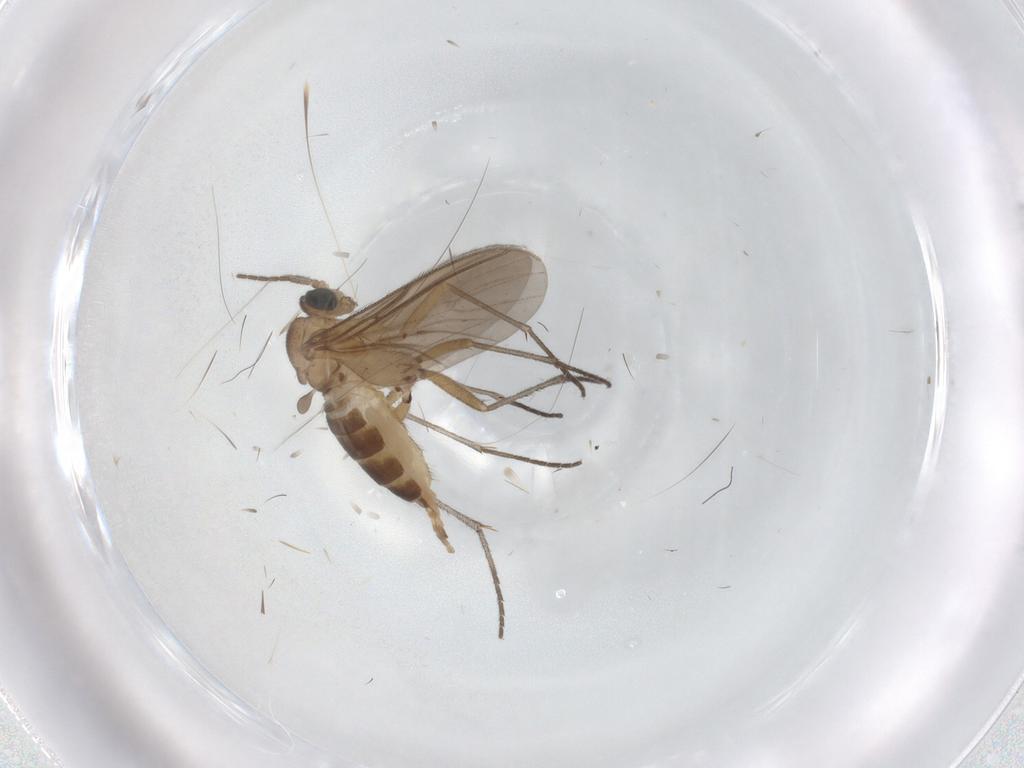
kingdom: Animalia
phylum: Arthropoda
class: Insecta
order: Diptera
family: Sciaridae
